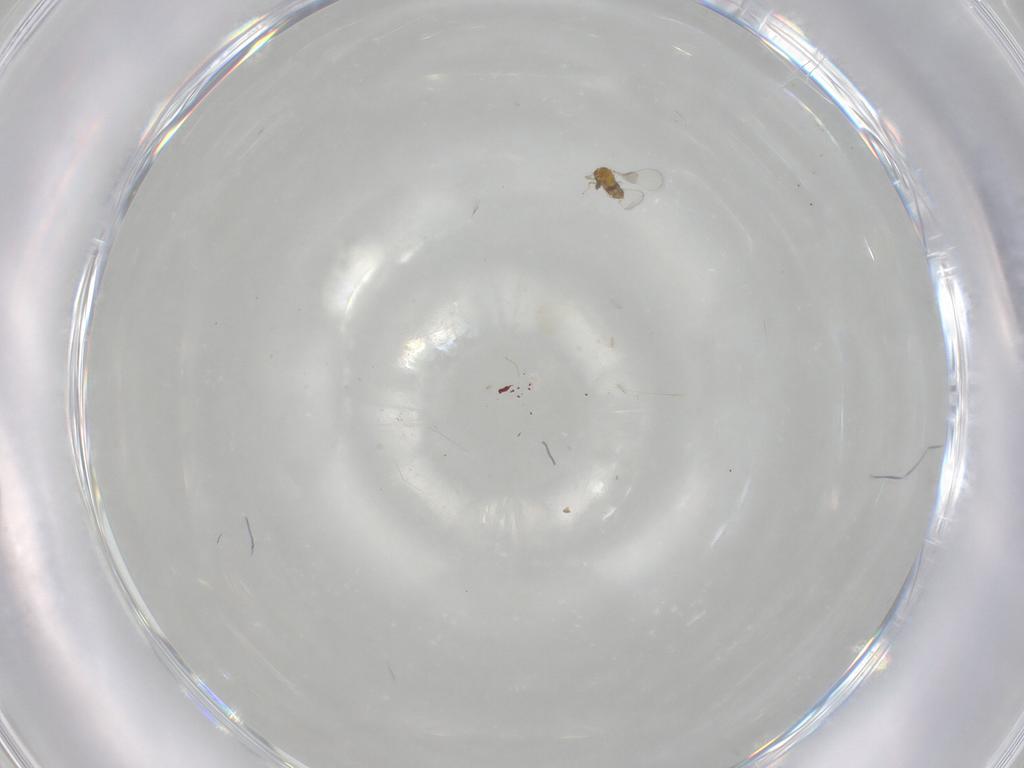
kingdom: Animalia
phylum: Arthropoda
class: Insecta
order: Hymenoptera
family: Trichogrammatidae
